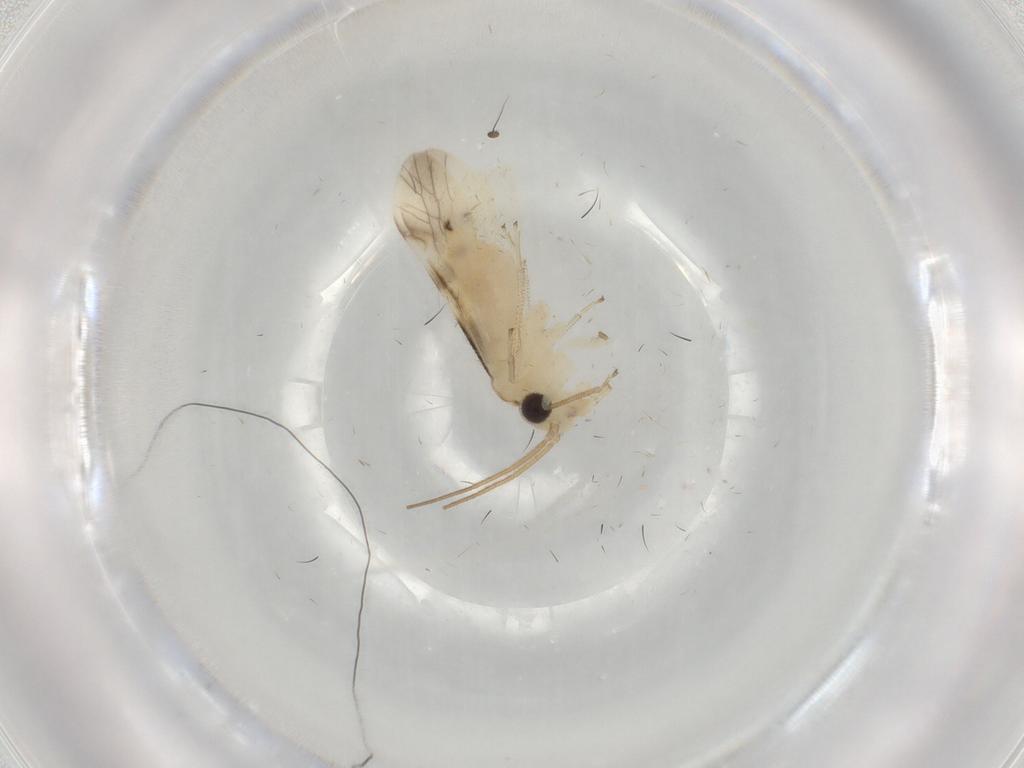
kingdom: Animalia
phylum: Arthropoda
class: Insecta
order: Psocodea
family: Caeciliusidae
